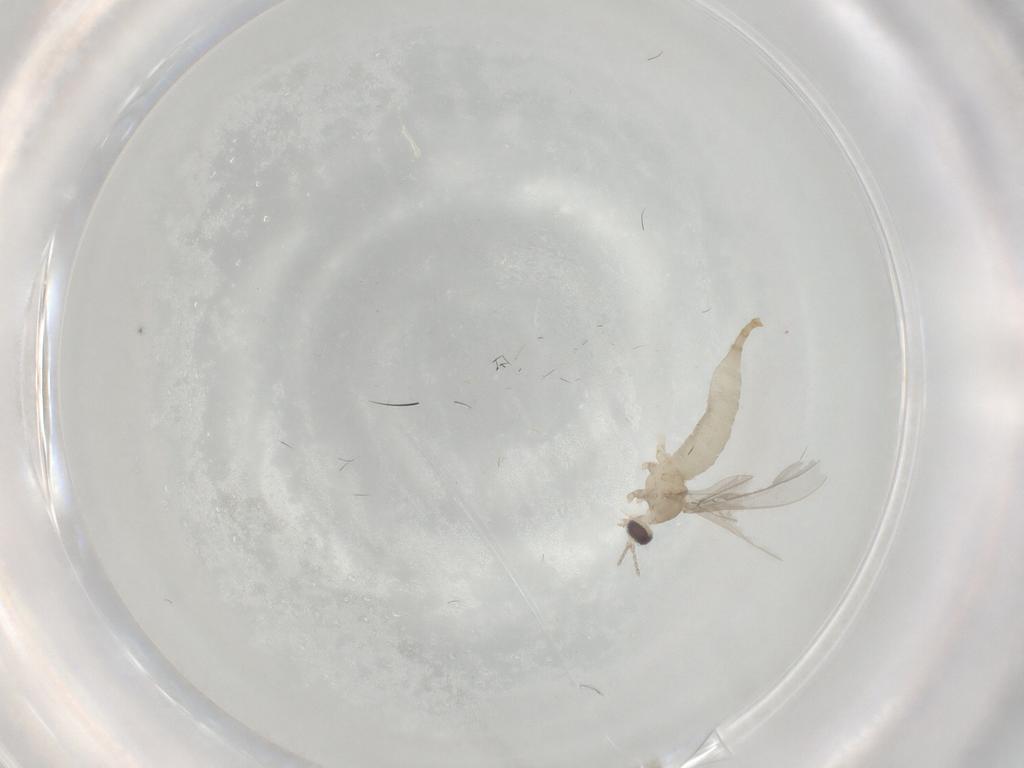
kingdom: Animalia
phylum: Arthropoda
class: Insecta
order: Diptera
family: Cecidomyiidae
